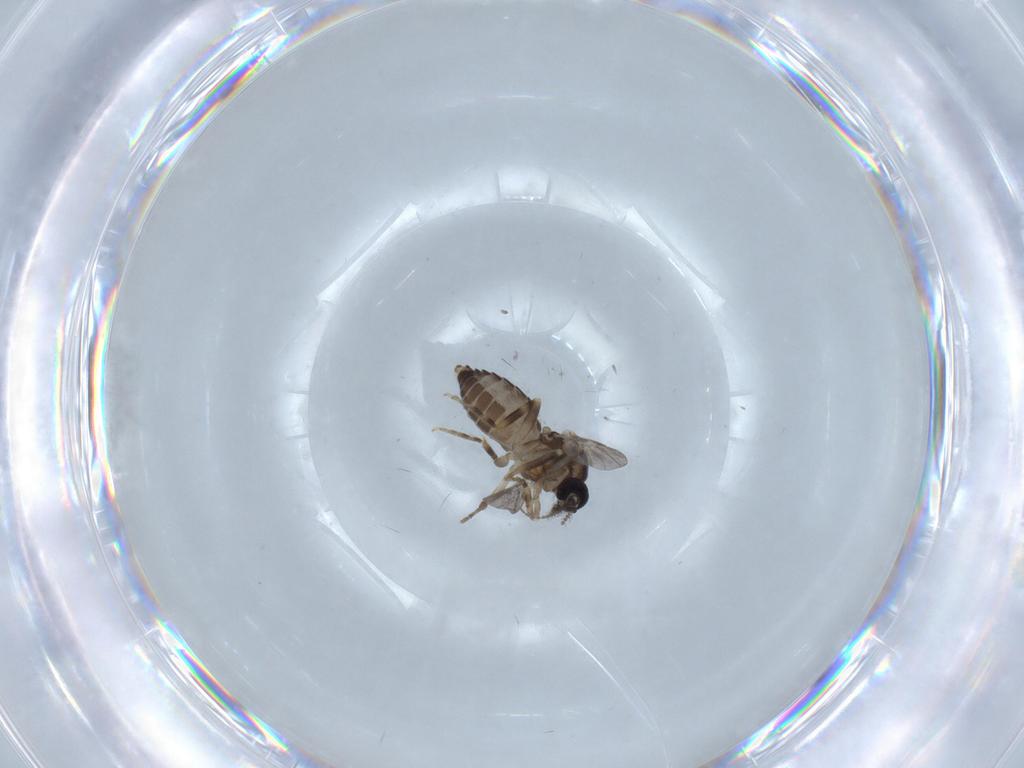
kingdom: Animalia
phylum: Arthropoda
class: Insecta
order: Diptera
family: Ceratopogonidae
